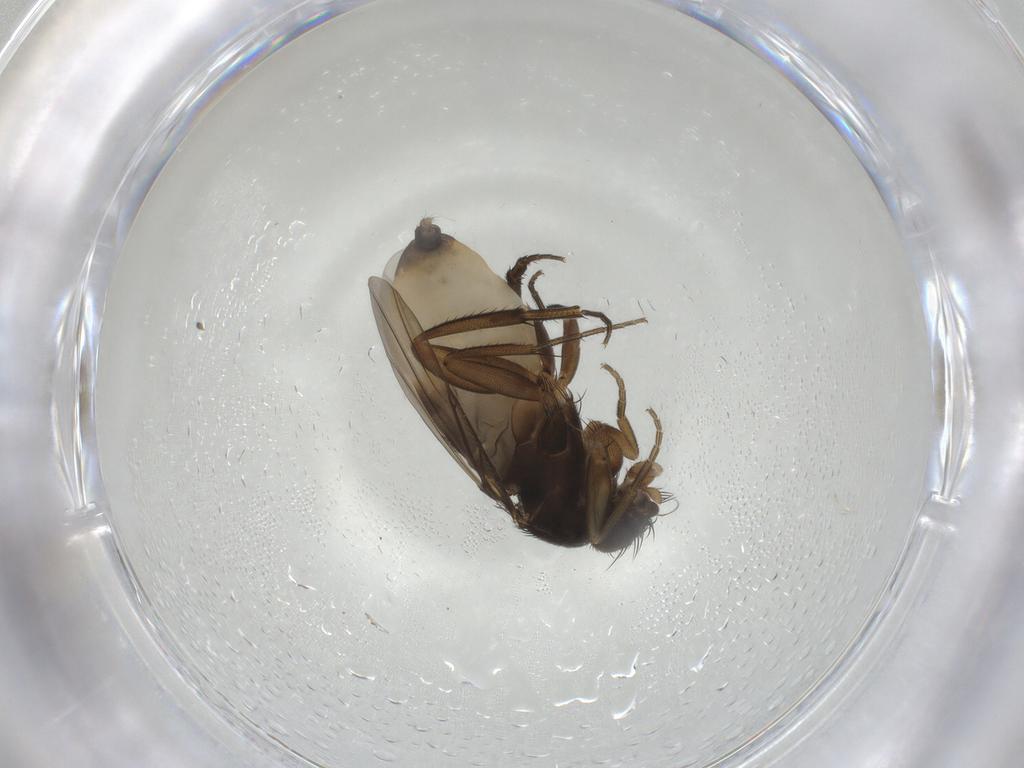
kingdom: Animalia
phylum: Arthropoda
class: Insecta
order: Diptera
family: Phoridae
